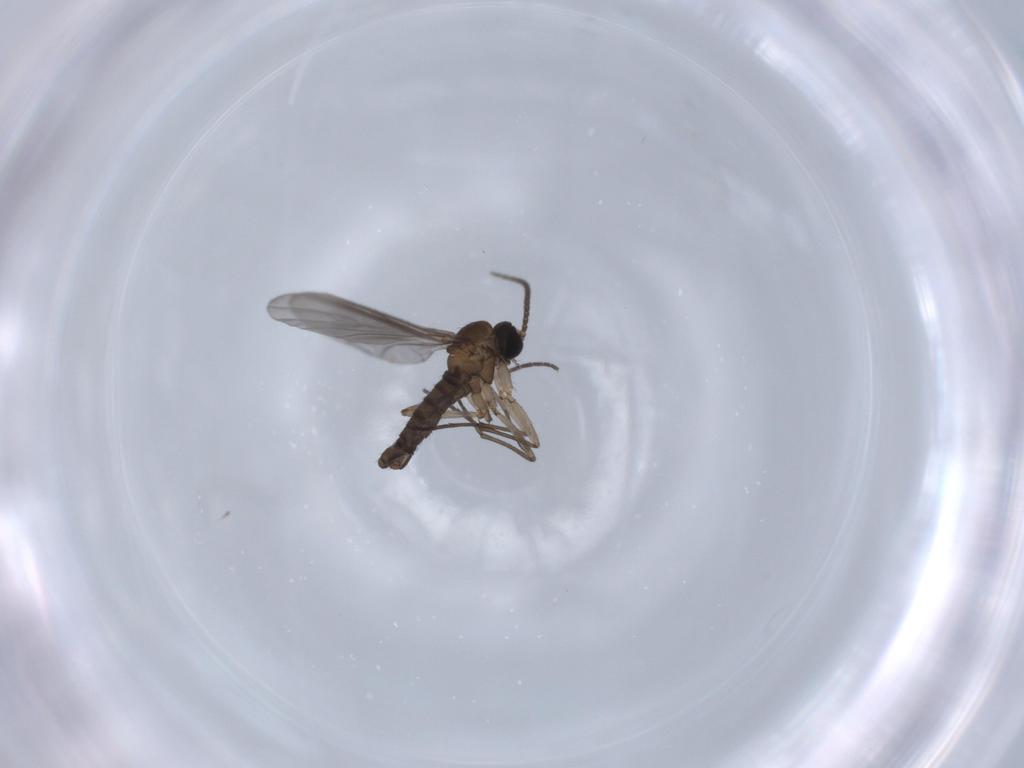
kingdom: Animalia
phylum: Arthropoda
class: Insecta
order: Diptera
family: Sciaridae
